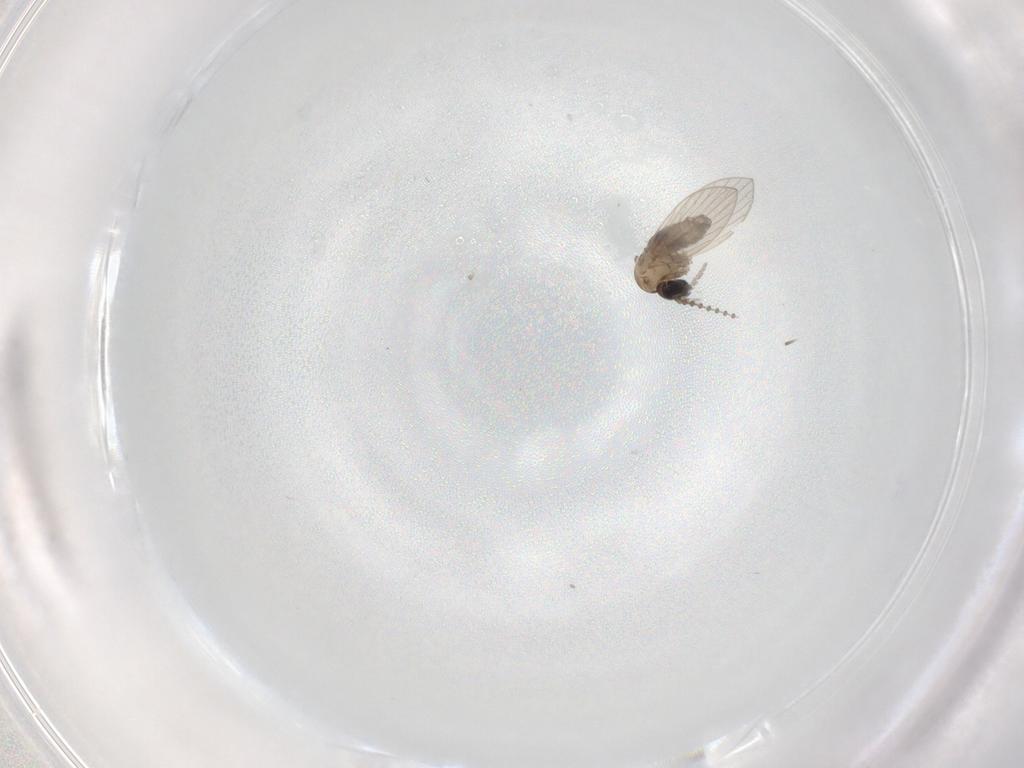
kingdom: Animalia
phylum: Arthropoda
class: Insecta
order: Diptera
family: Psychodidae
